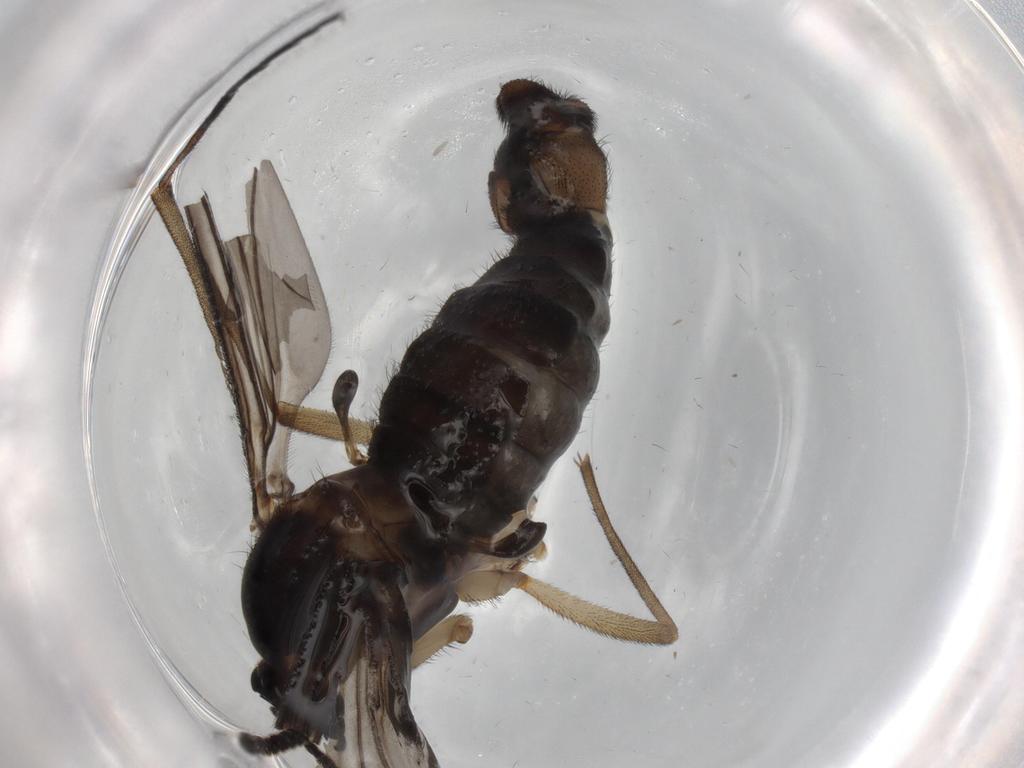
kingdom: Animalia
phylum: Arthropoda
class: Insecta
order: Diptera
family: Sciaridae
